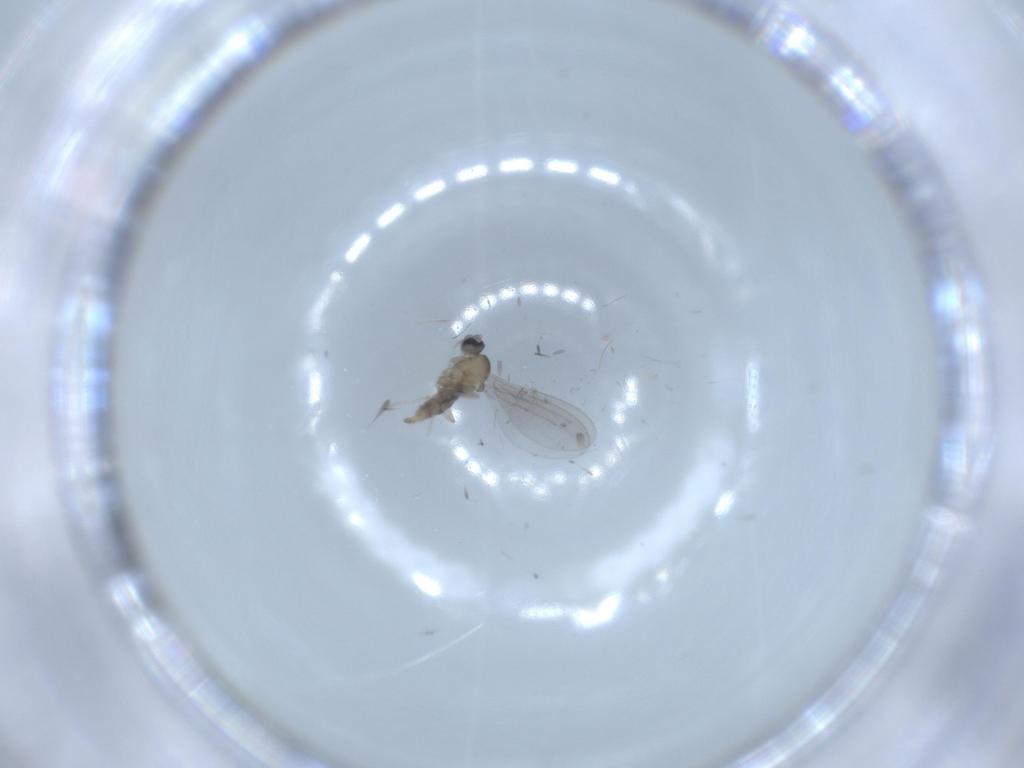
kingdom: Animalia
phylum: Arthropoda
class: Insecta
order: Diptera
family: Cecidomyiidae
